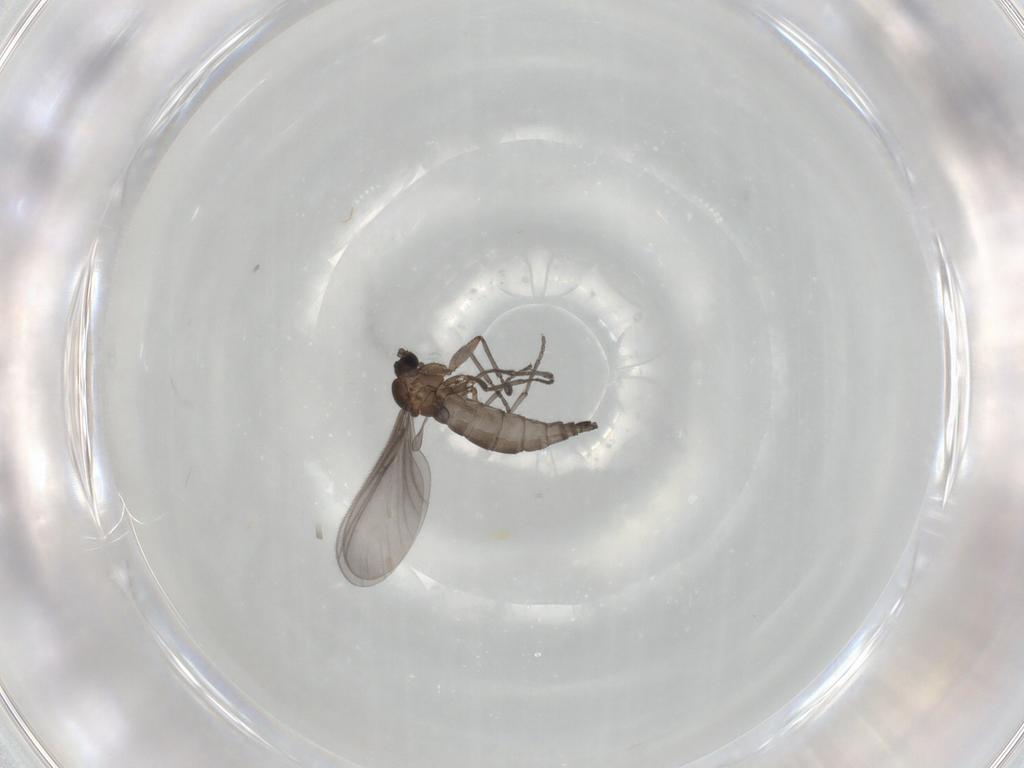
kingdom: Animalia
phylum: Arthropoda
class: Insecta
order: Diptera
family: Sciaridae
